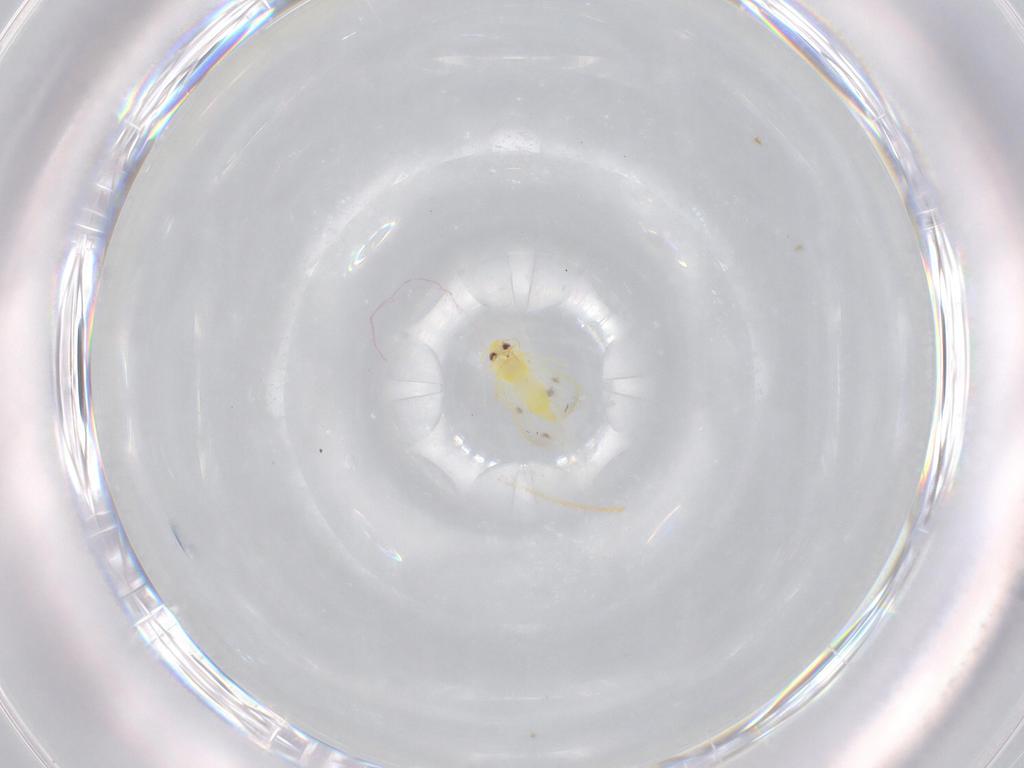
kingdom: Animalia
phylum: Arthropoda
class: Insecta
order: Hemiptera
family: Aleyrodidae
